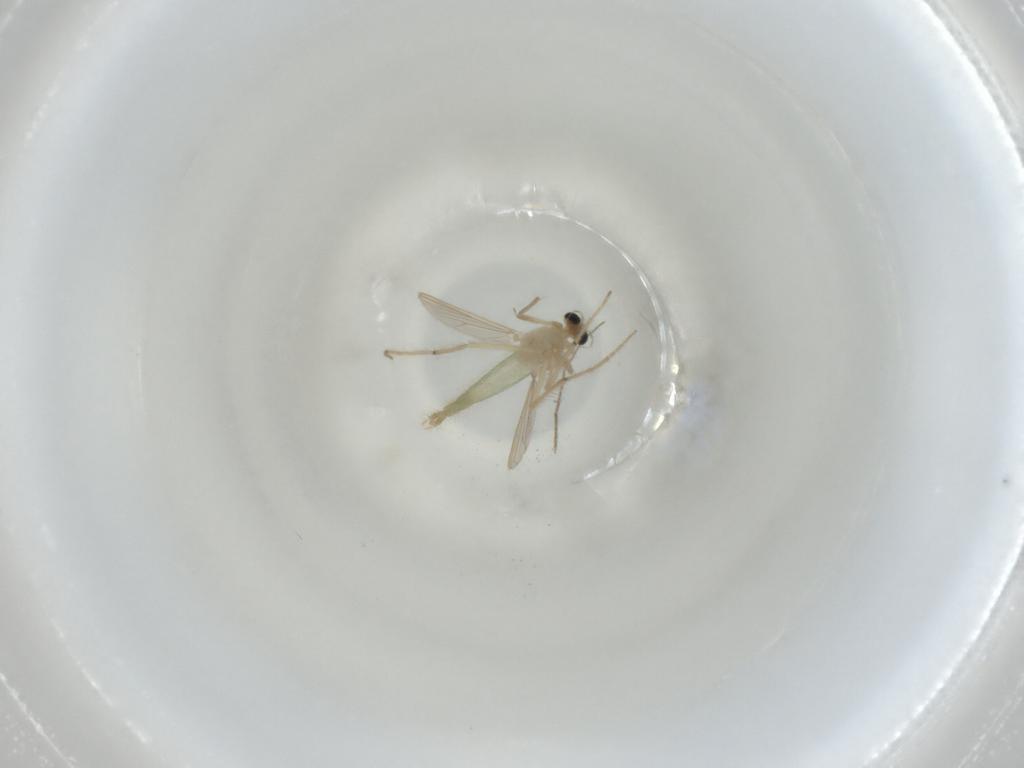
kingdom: Animalia
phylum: Arthropoda
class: Insecta
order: Diptera
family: Chironomidae
